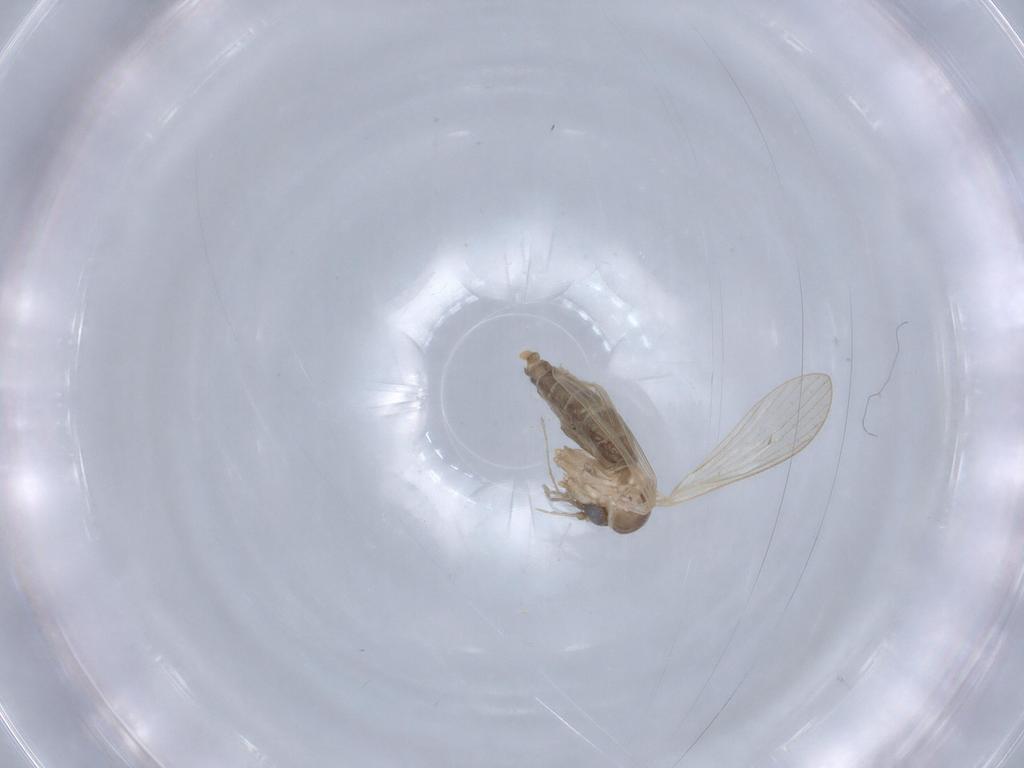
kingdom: Animalia
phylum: Arthropoda
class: Insecta
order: Diptera
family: Psychodidae
